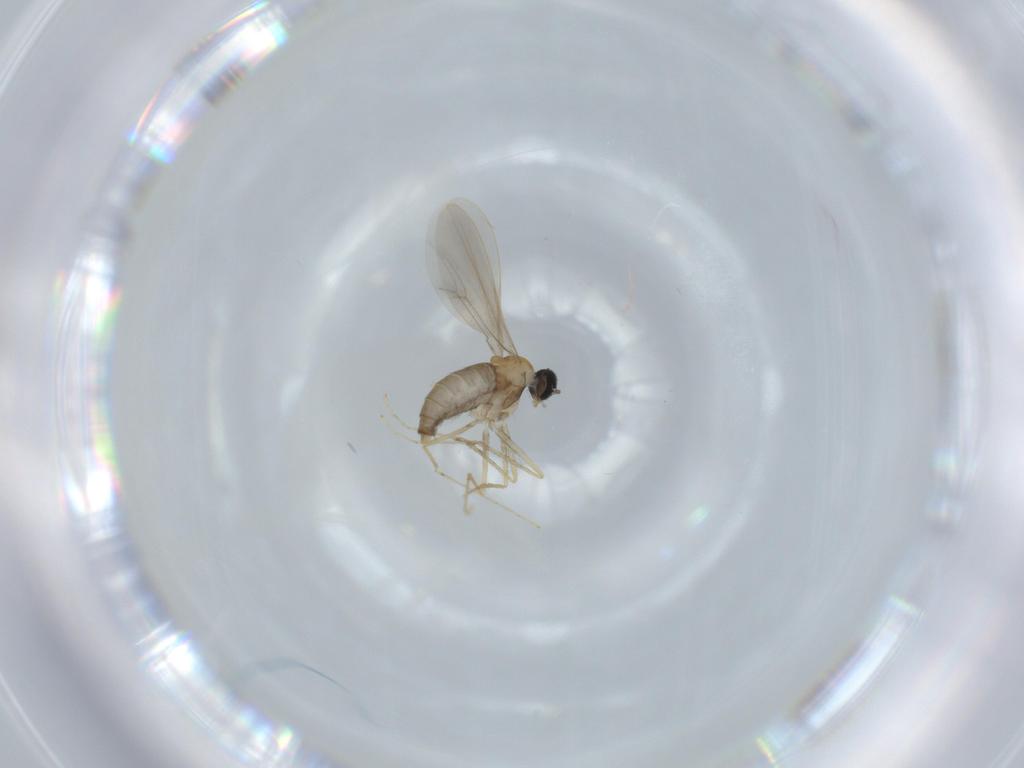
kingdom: Animalia
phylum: Arthropoda
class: Insecta
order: Diptera
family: Cecidomyiidae
